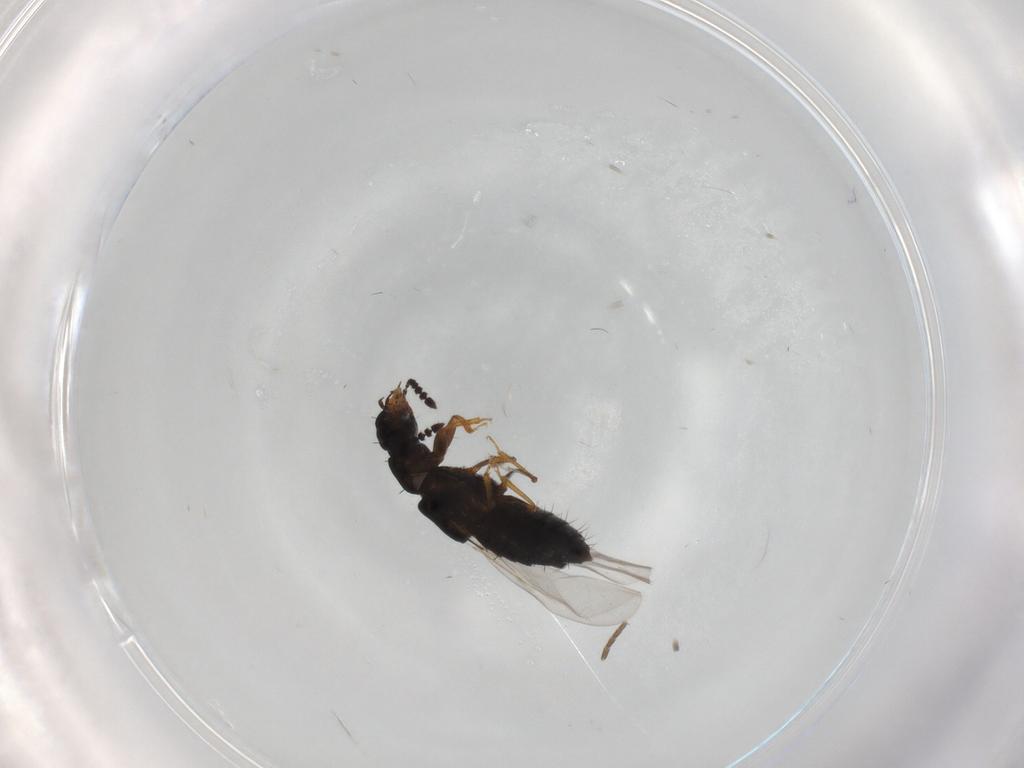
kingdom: Animalia
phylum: Arthropoda
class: Insecta
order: Coleoptera
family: Staphylinidae
